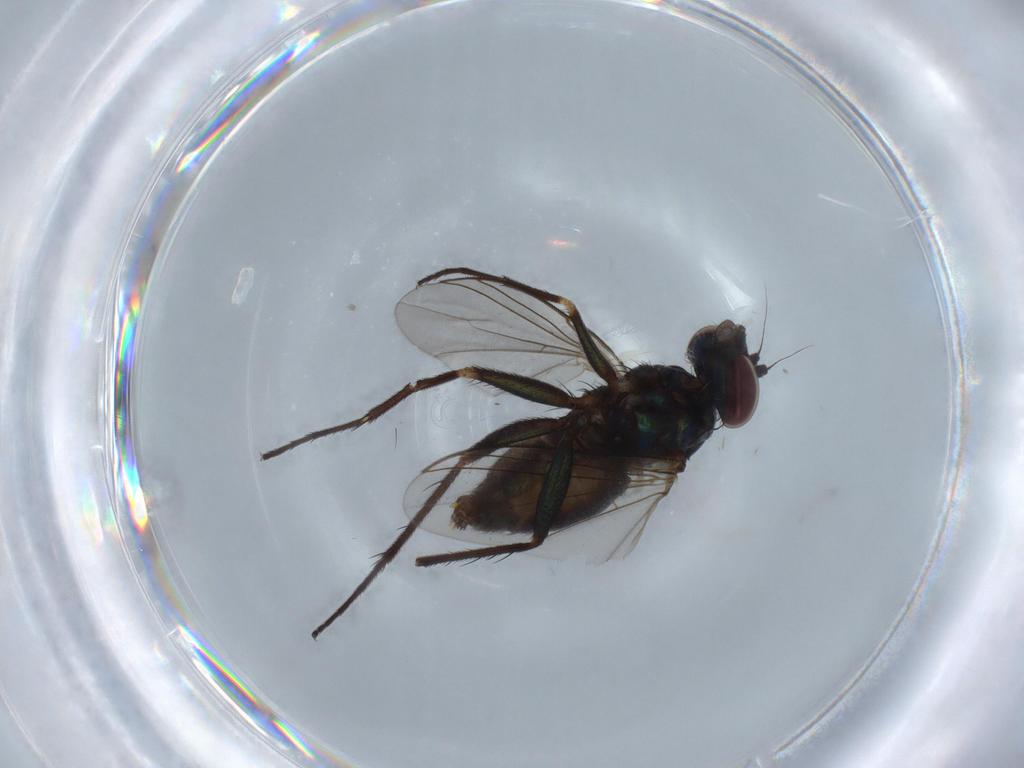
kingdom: Animalia
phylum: Arthropoda
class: Insecta
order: Diptera
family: Dolichopodidae
